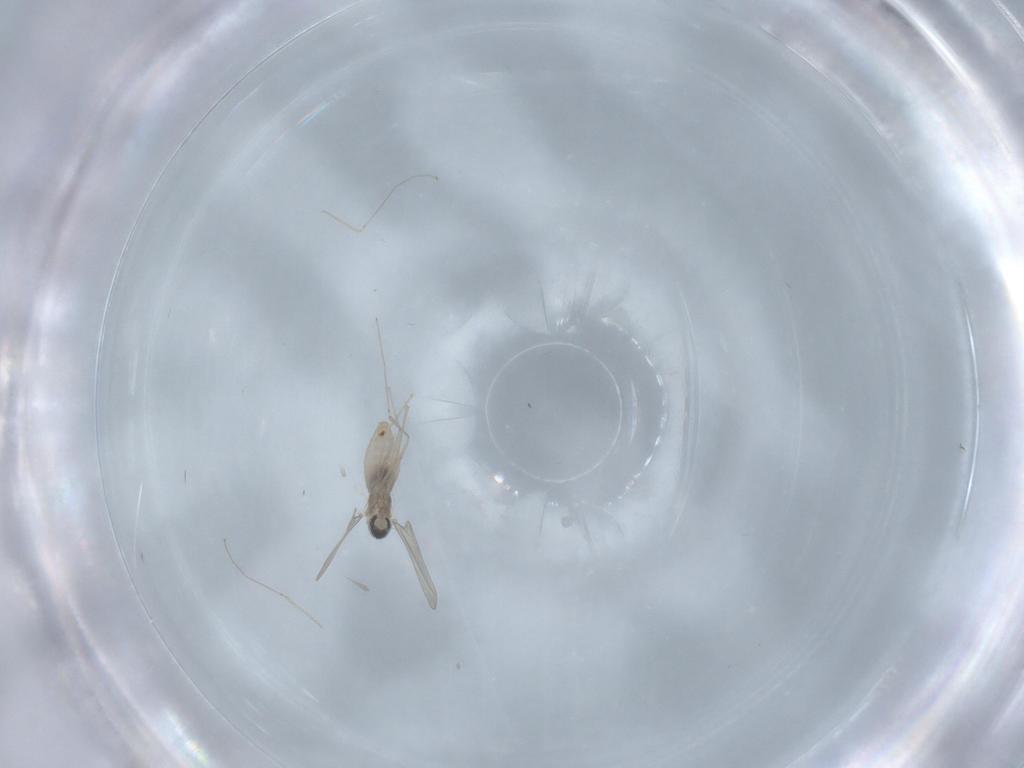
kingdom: Animalia
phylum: Arthropoda
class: Insecta
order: Diptera
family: Cecidomyiidae
